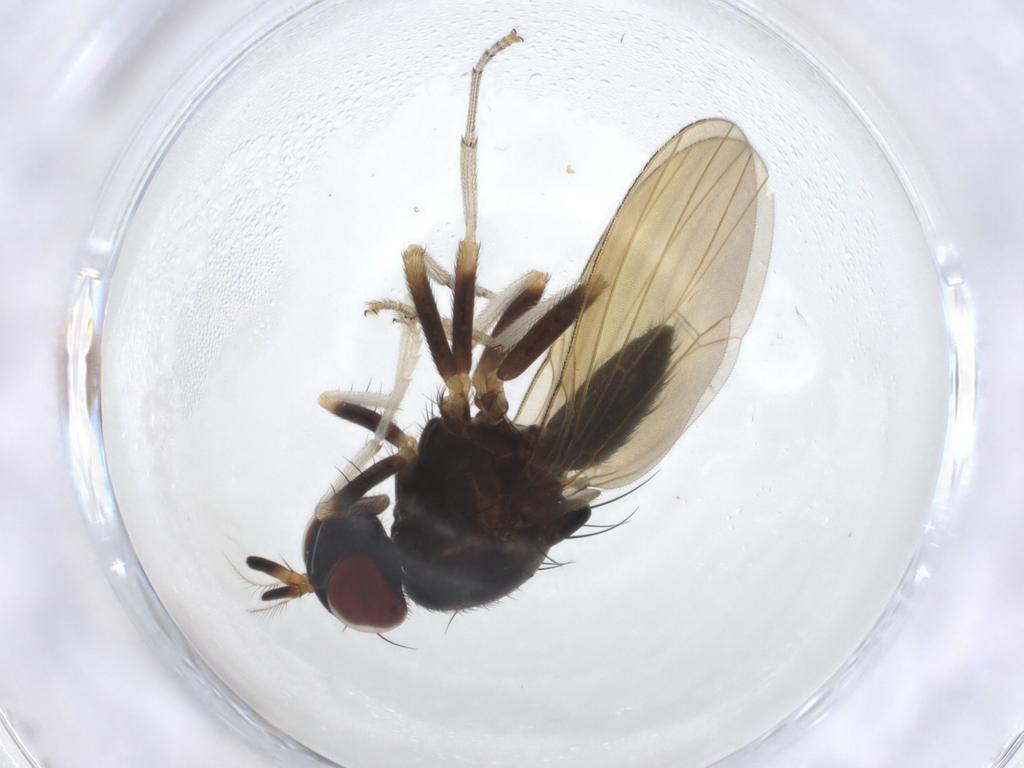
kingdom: Animalia
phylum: Arthropoda
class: Insecta
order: Diptera
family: Lauxaniidae
